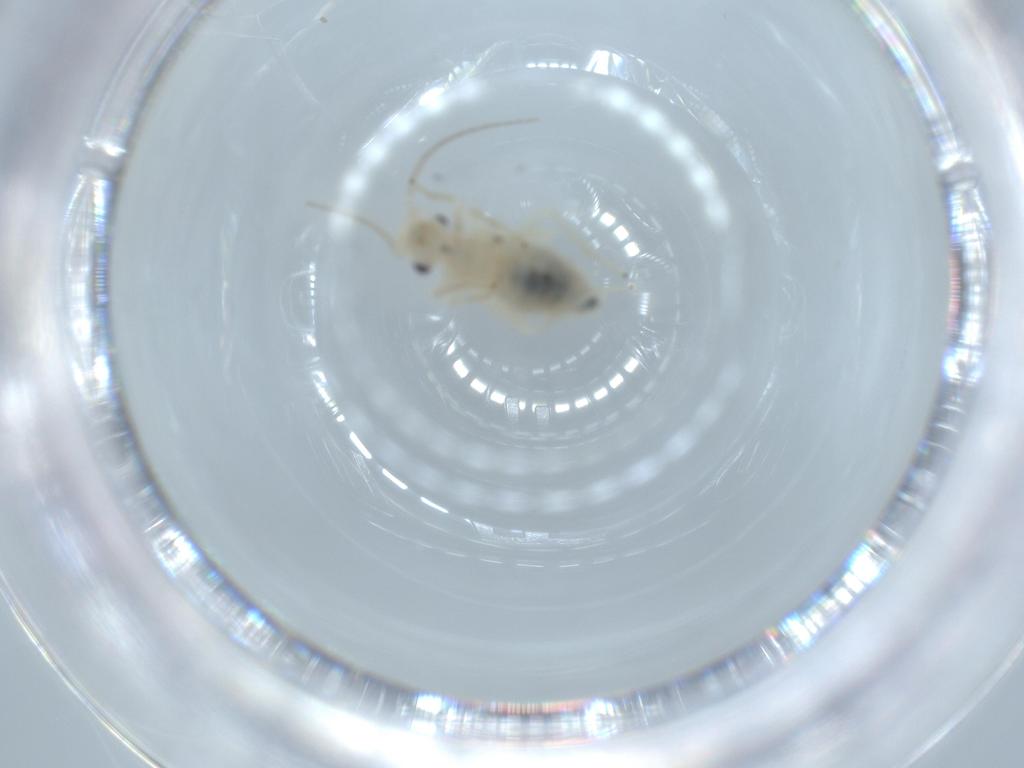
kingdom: Animalia
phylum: Arthropoda
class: Insecta
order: Psocodea
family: Caeciliusidae
